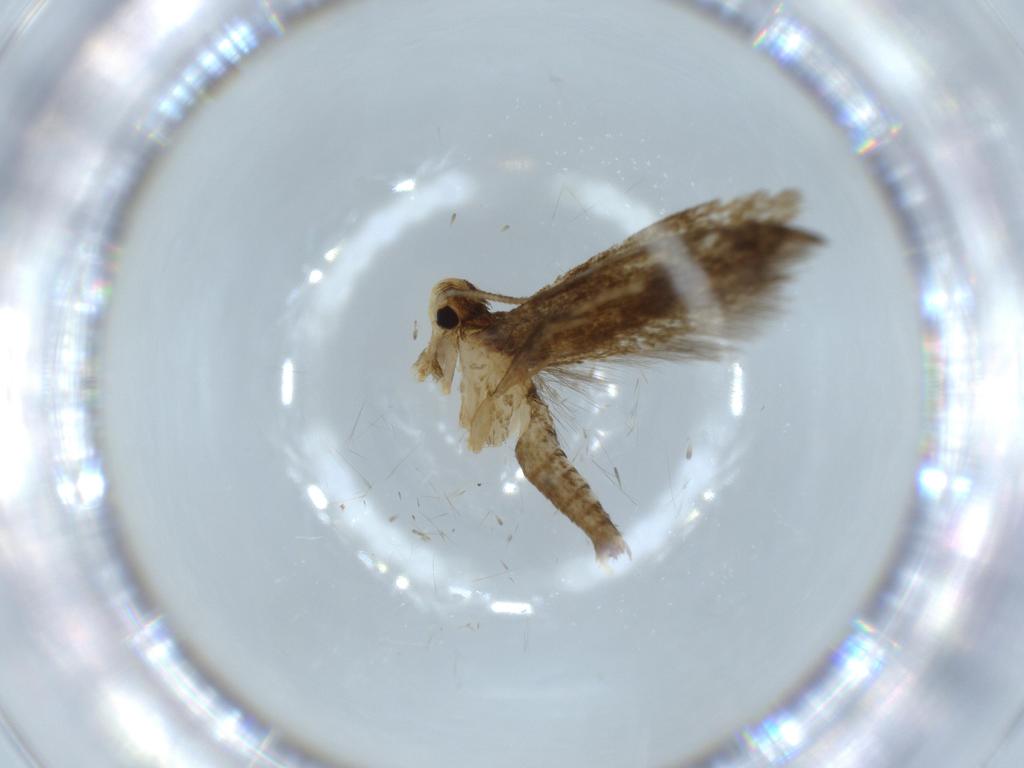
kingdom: Animalia
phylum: Arthropoda
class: Insecta
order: Lepidoptera
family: Tineidae
